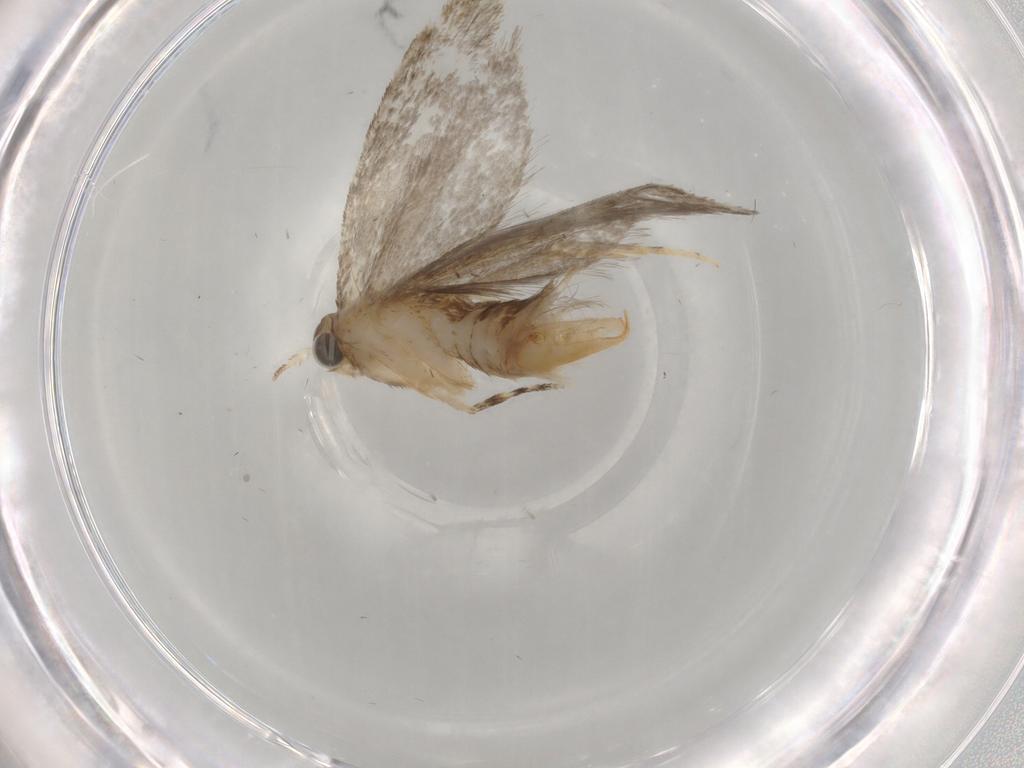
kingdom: Animalia
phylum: Arthropoda
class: Insecta
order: Lepidoptera
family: Tineidae
